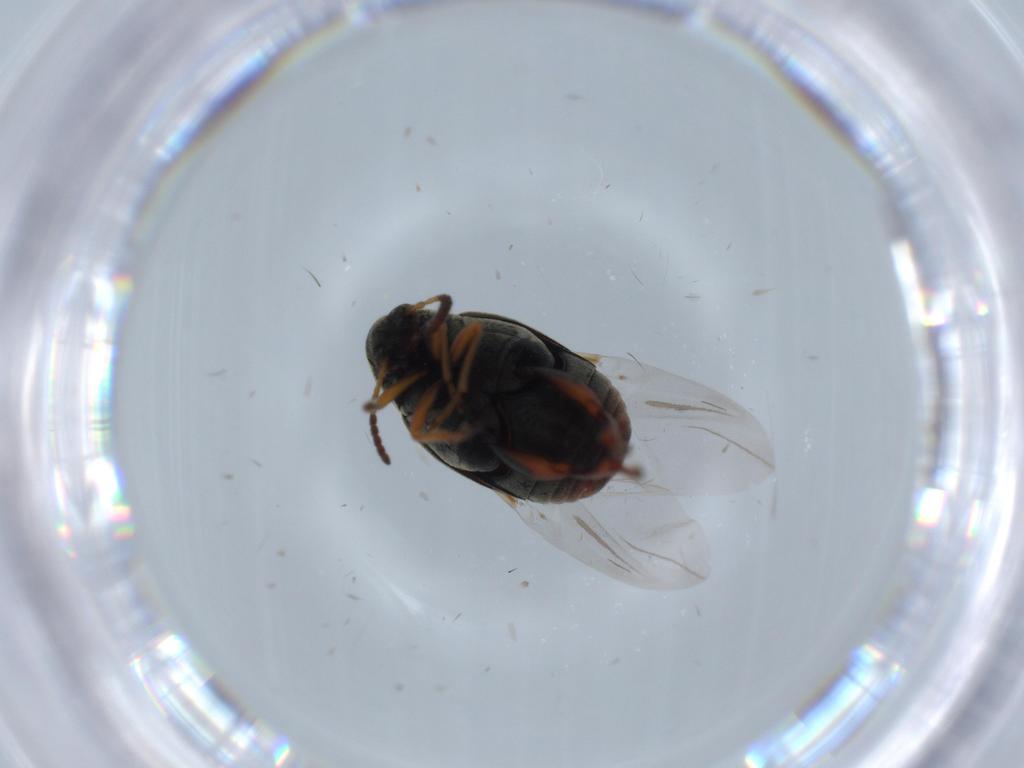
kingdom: Animalia
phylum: Arthropoda
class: Insecta
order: Coleoptera
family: Chrysomelidae
